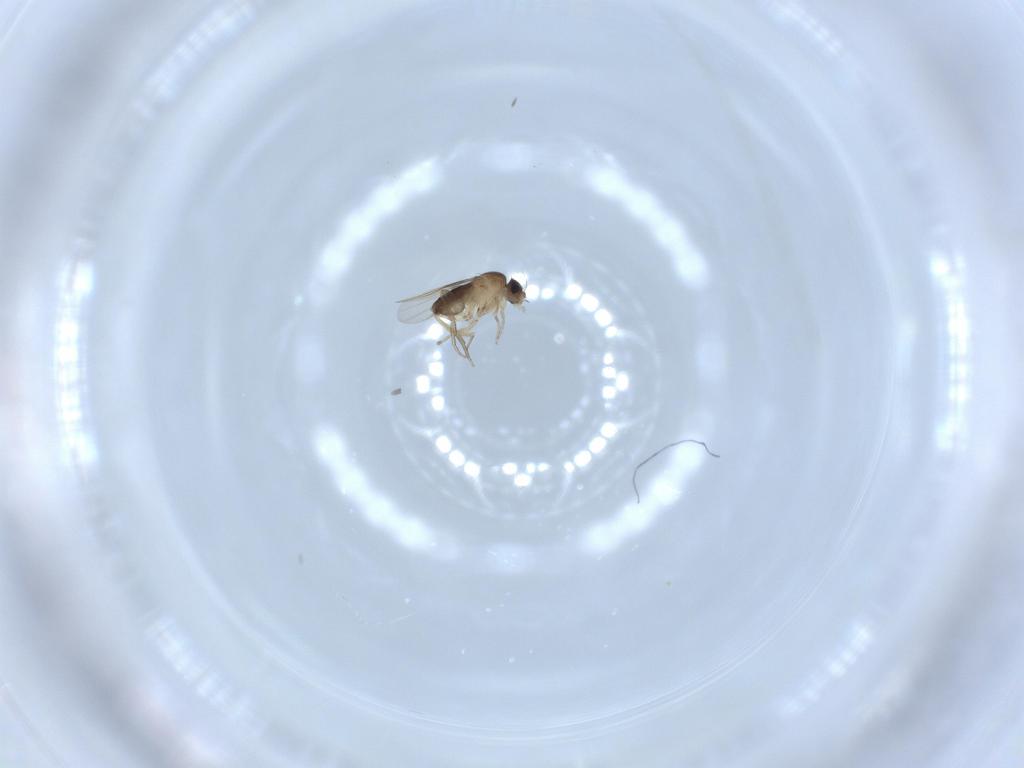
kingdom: Animalia
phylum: Arthropoda
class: Insecta
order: Diptera
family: Phoridae
